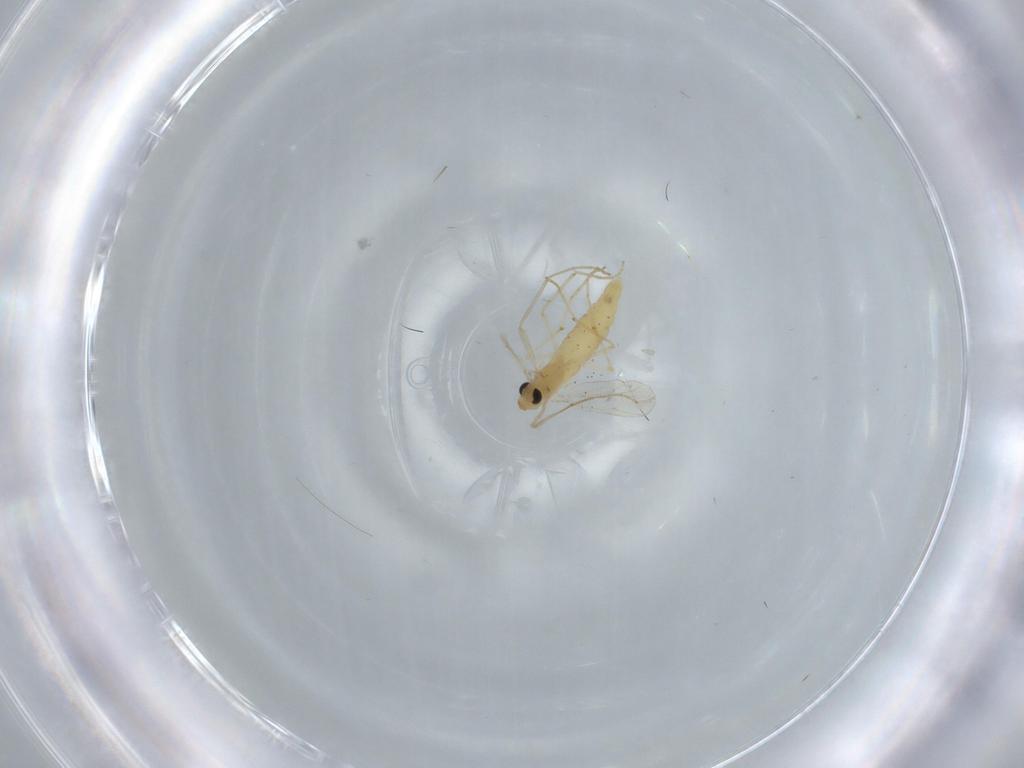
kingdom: Animalia
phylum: Arthropoda
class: Insecta
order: Diptera
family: Chironomidae
